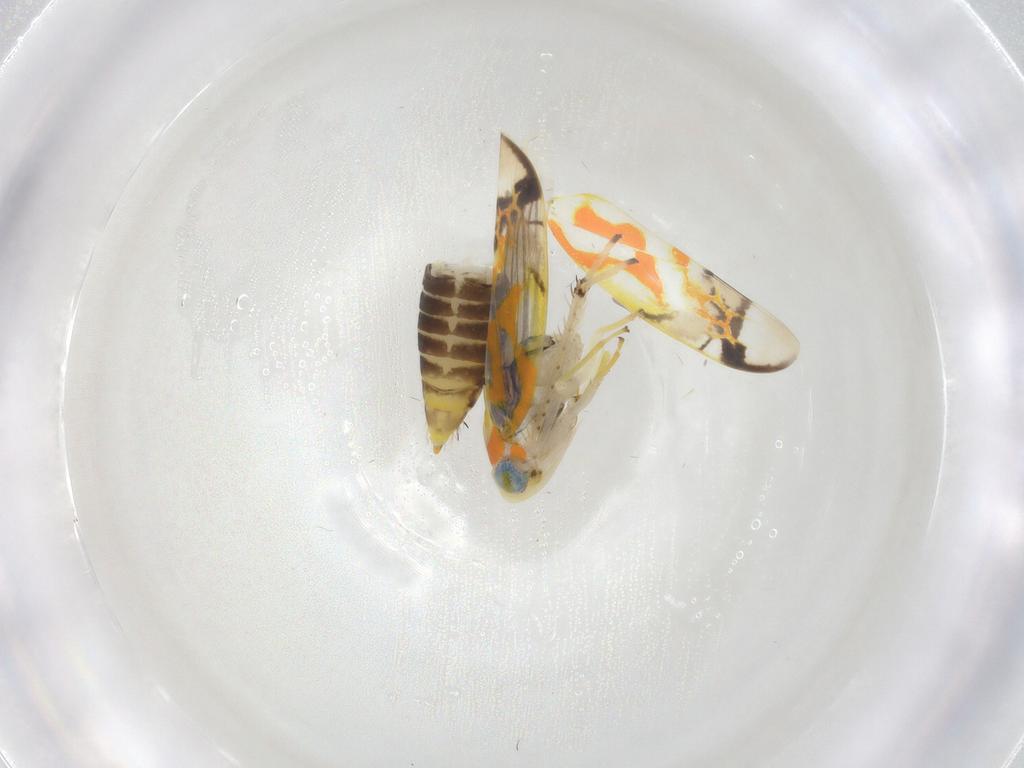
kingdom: Animalia
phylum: Arthropoda
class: Insecta
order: Hemiptera
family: Cicadellidae
